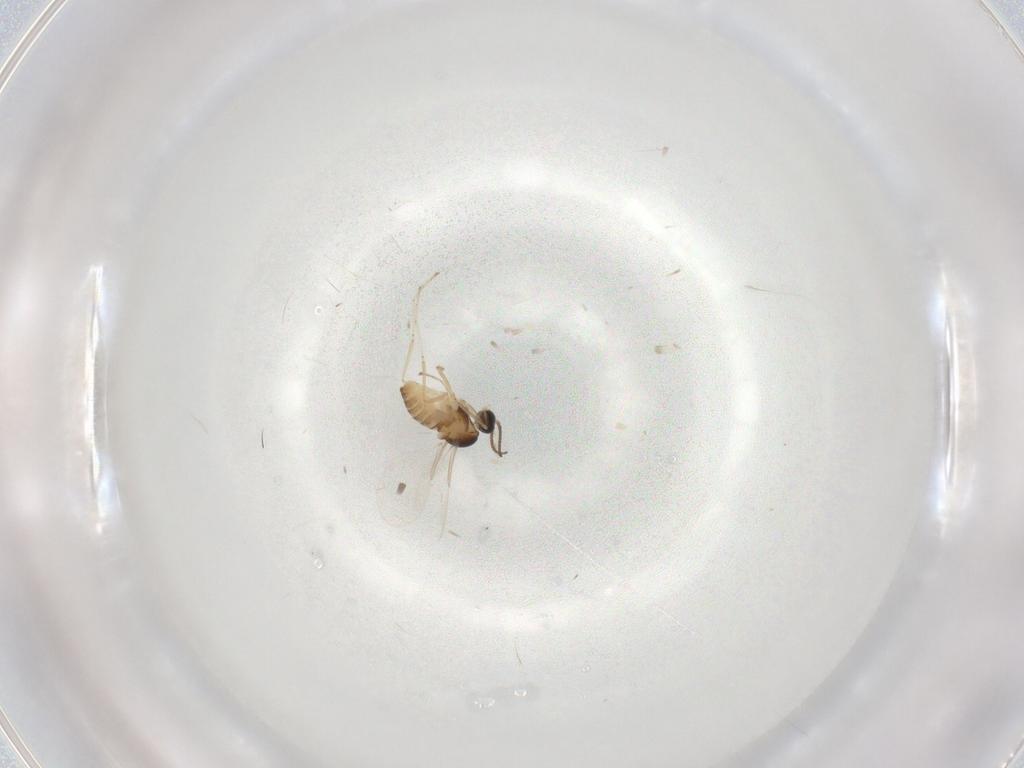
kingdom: Animalia
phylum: Arthropoda
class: Insecta
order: Diptera
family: Cecidomyiidae
